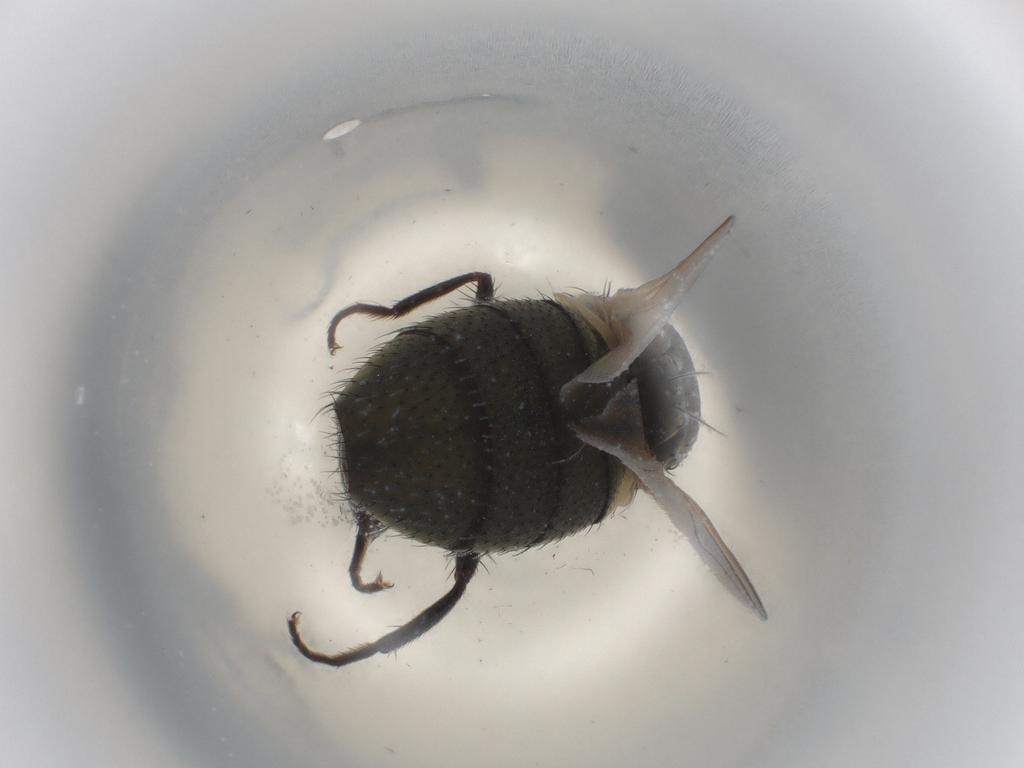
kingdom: Animalia
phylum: Arthropoda
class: Insecta
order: Diptera
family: Muscidae
